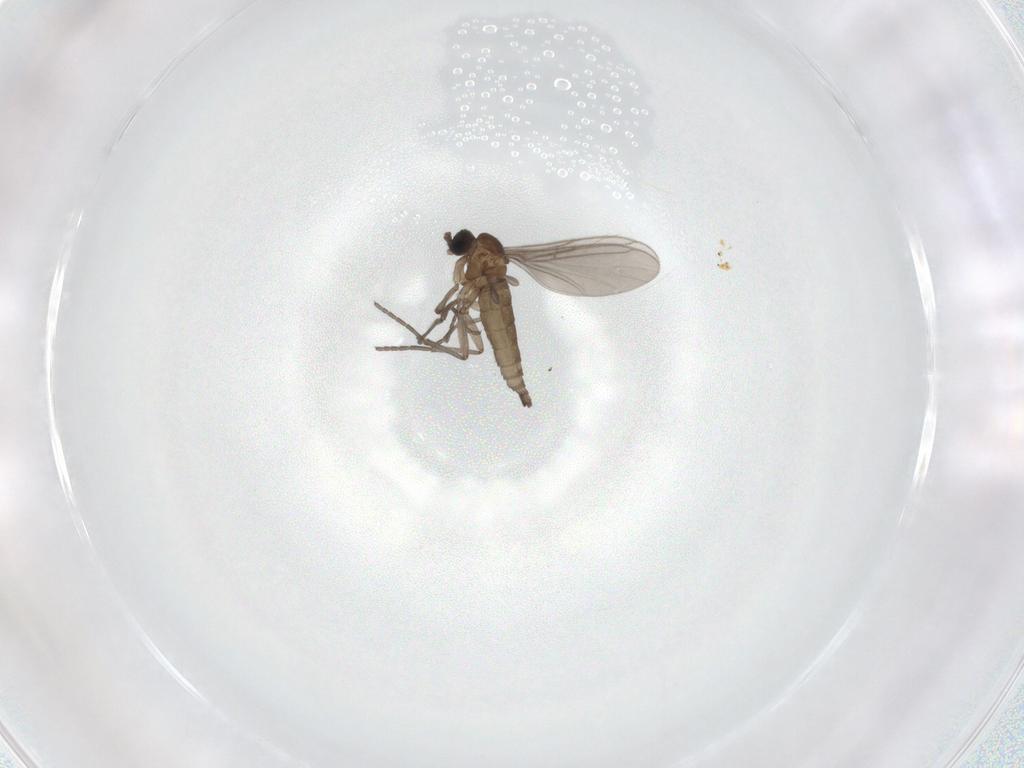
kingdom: Animalia
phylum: Arthropoda
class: Insecta
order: Diptera
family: Sciaridae
